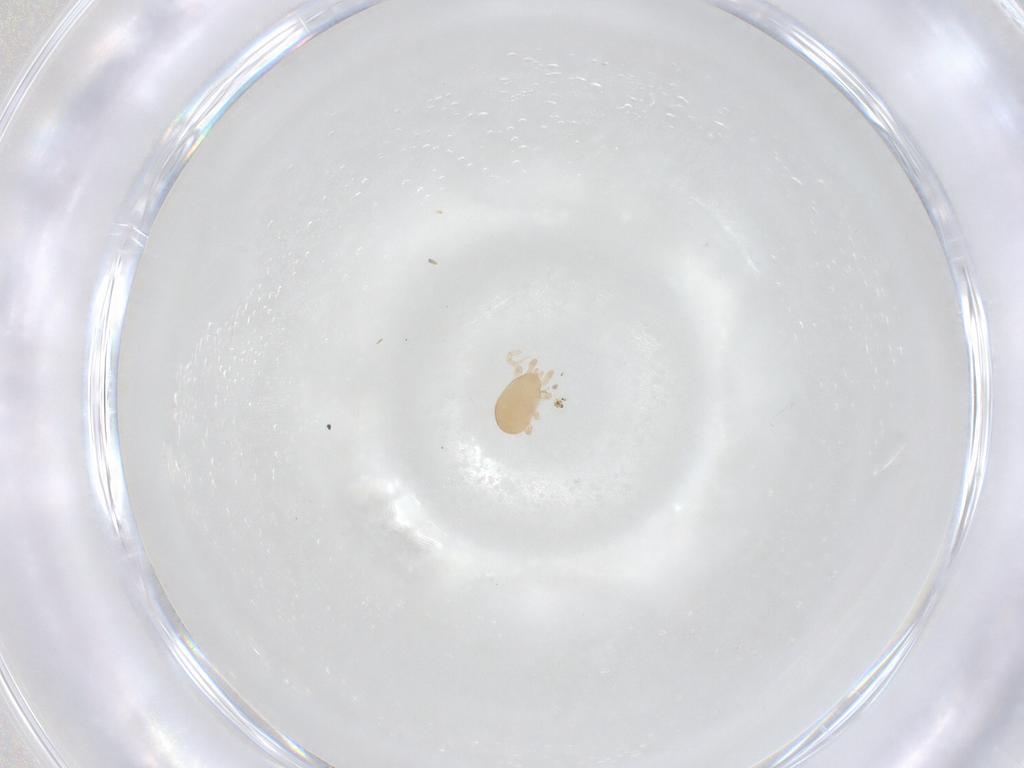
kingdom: Animalia
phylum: Arthropoda
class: Arachnida
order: Mesostigmata
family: Melicharidae
